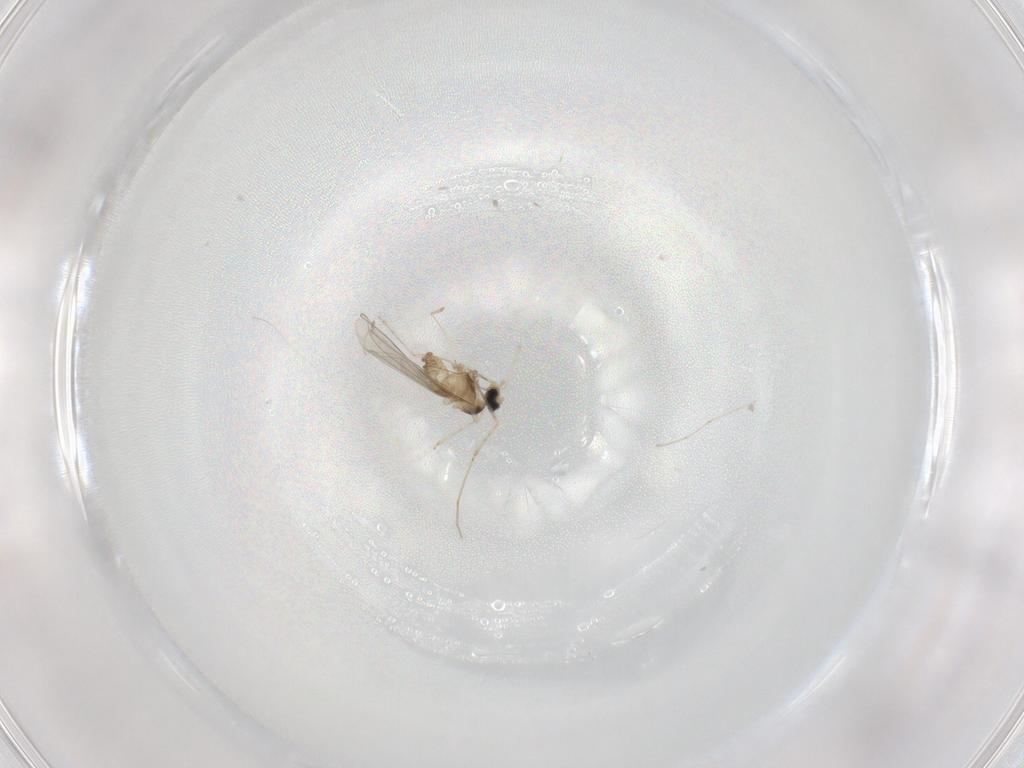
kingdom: Animalia
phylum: Arthropoda
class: Insecta
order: Diptera
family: Cecidomyiidae
